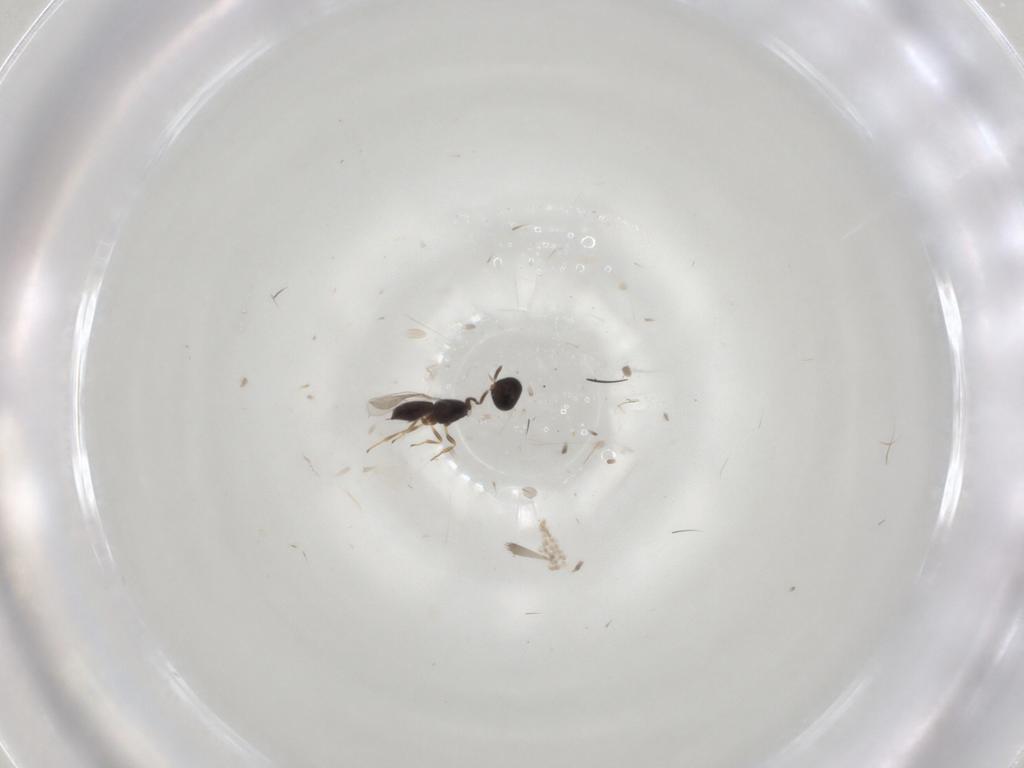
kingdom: Animalia
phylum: Arthropoda
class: Insecta
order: Hymenoptera
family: Scelionidae
